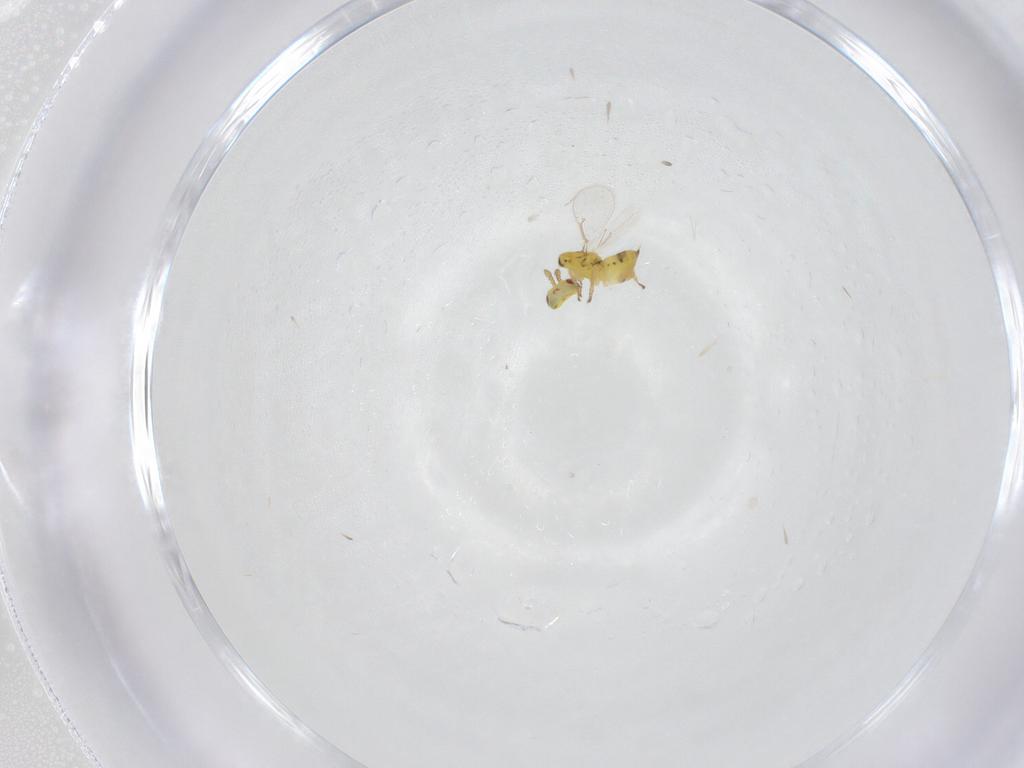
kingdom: Animalia
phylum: Arthropoda
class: Insecta
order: Hymenoptera
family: Eulophidae
